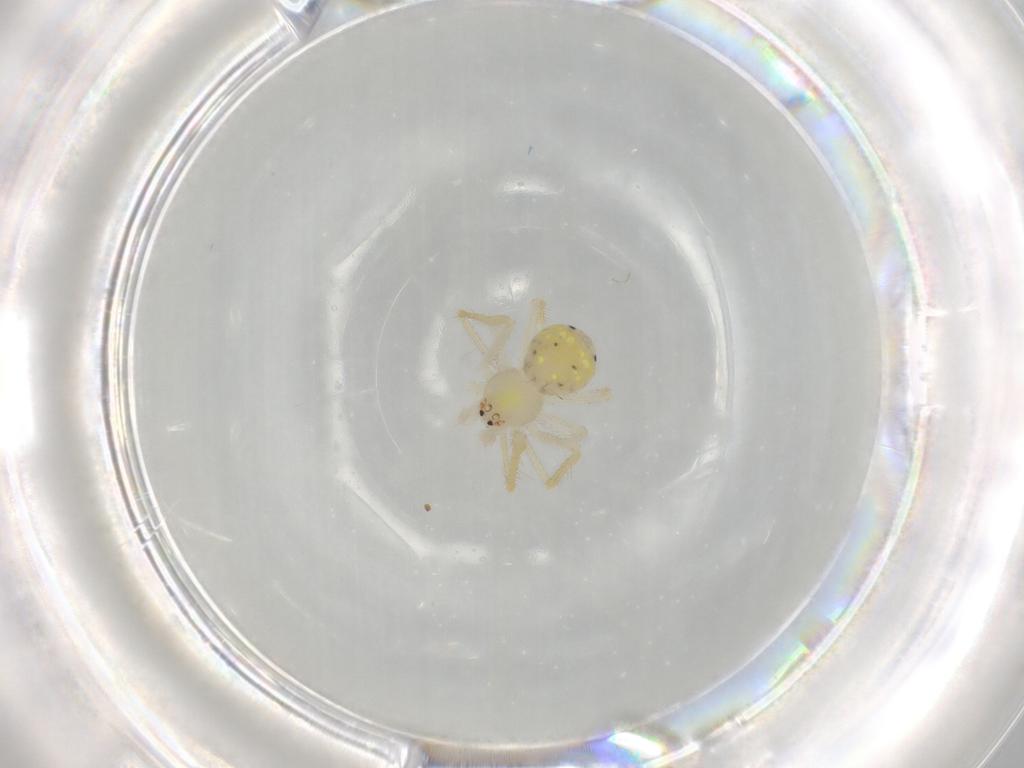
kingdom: Animalia
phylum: Arthropoda
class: Arachnida
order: Araneae
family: Theridiidae
